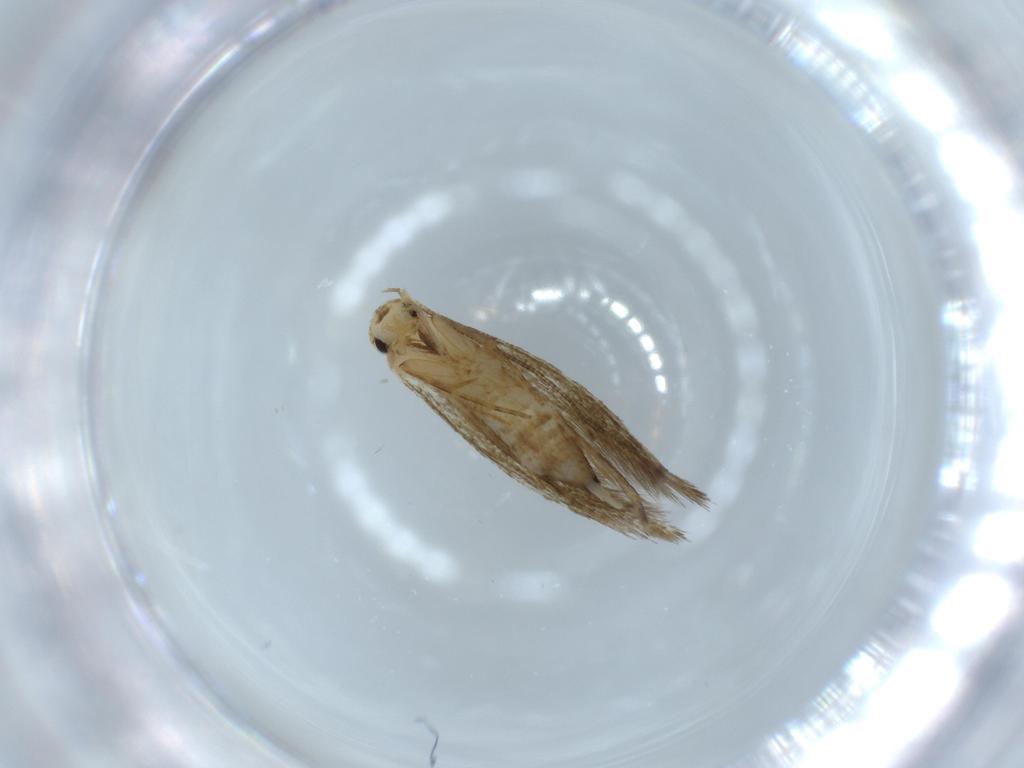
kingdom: Animalia
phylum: Arthropoda
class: Insecta
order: Lepidoptera
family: Tineidae
